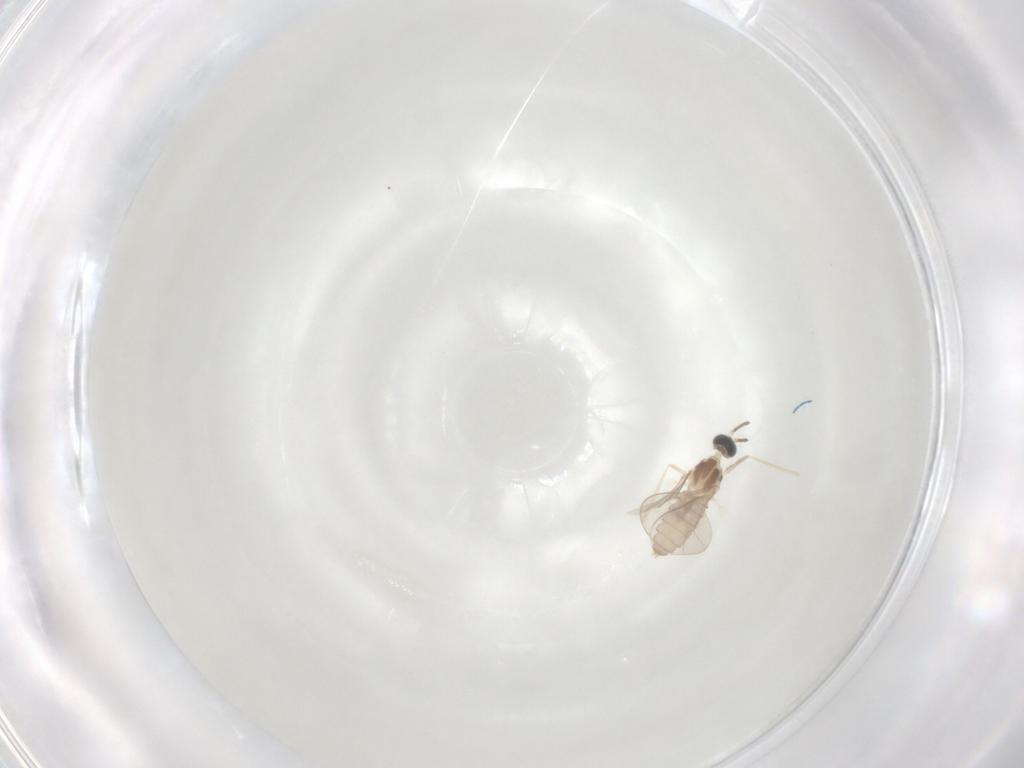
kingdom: Animalia
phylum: Arthropoda
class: Insecta
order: Diptera
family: Cecidomyiidae
